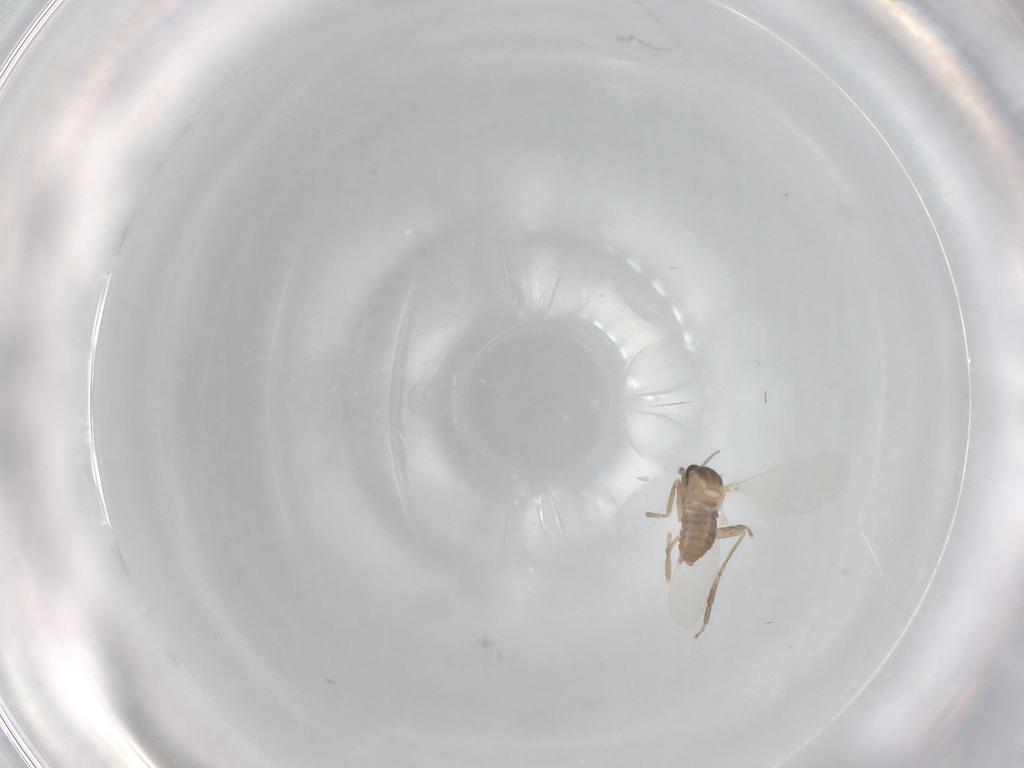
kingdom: Animalia
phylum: Arthropoda
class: Insecta
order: Diptera
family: Cecidomyiidae
